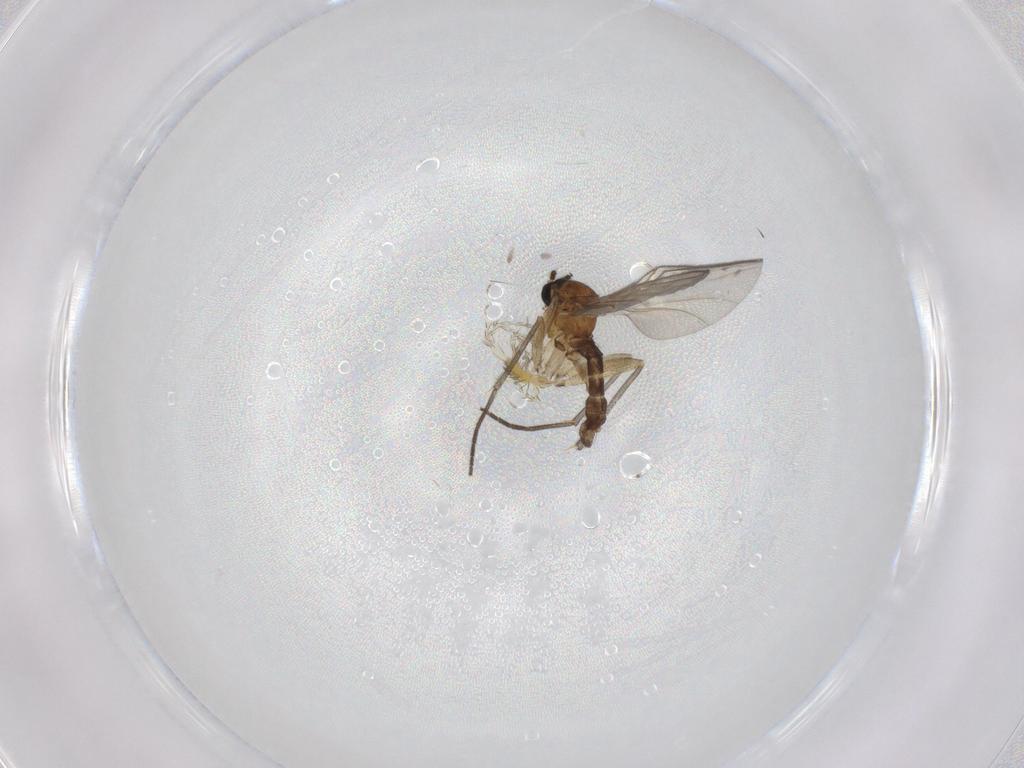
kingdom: Animalia
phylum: Arthropoda
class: Insecta
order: Diptera
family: Sciaridae
